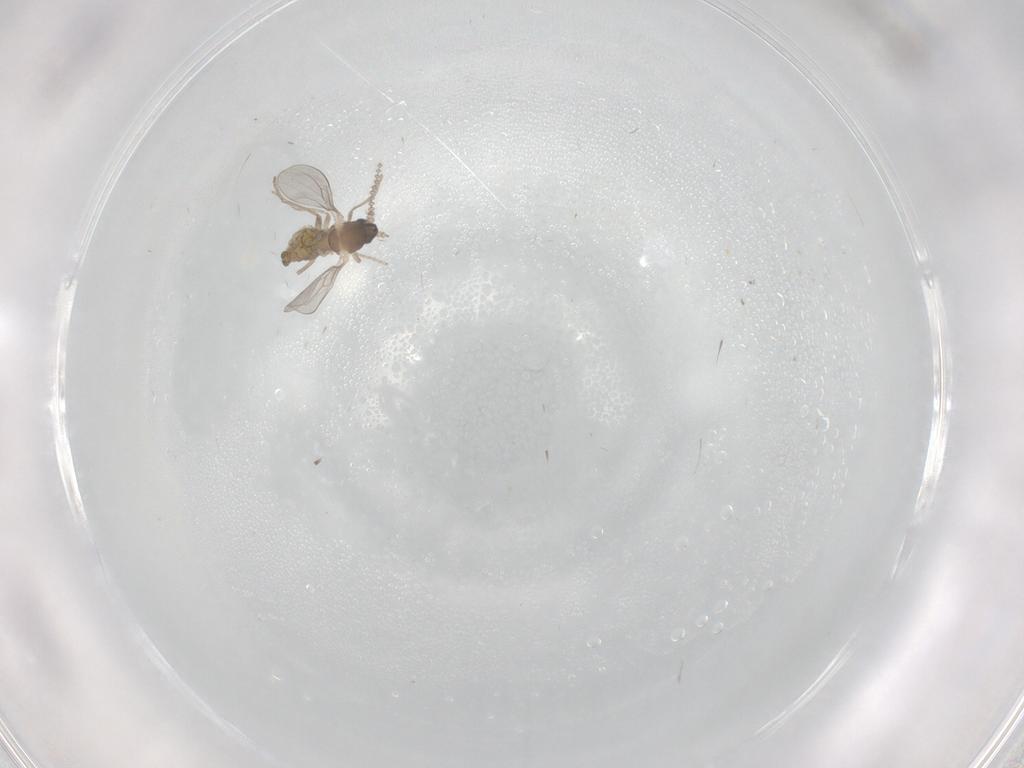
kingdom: Animalia
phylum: Arthropoda
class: Insecta
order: Diptera
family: Cecidomyiidae
